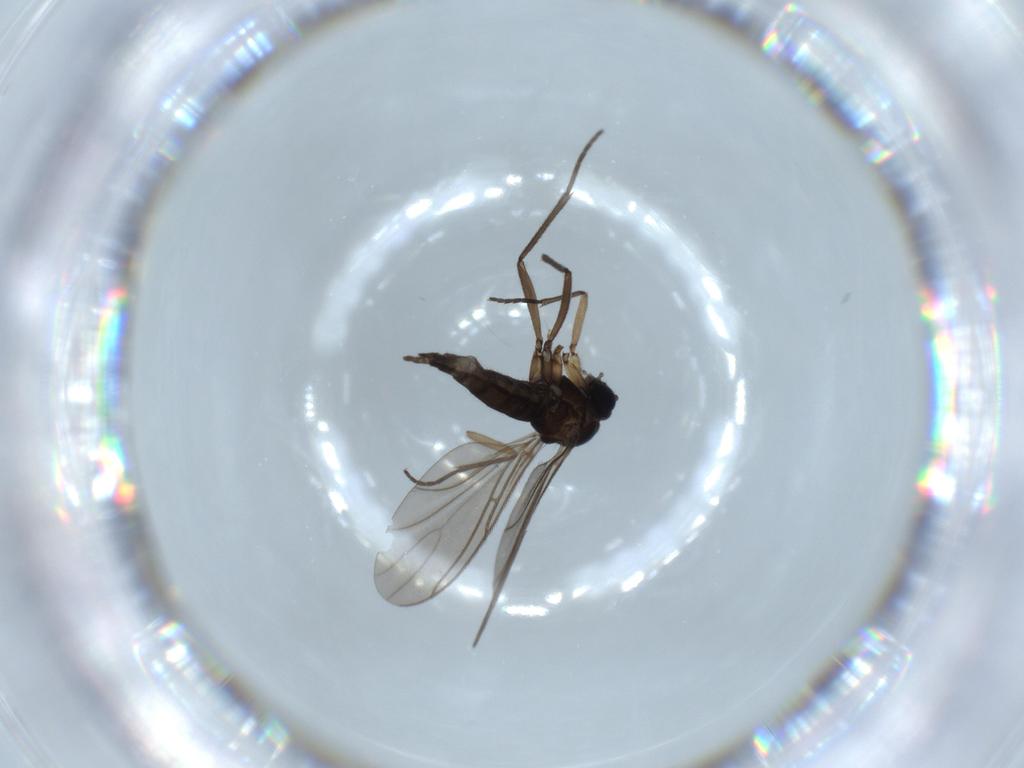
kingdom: Animalia
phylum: Arthropoda
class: Insecta
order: Diptera
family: Sciaridae
